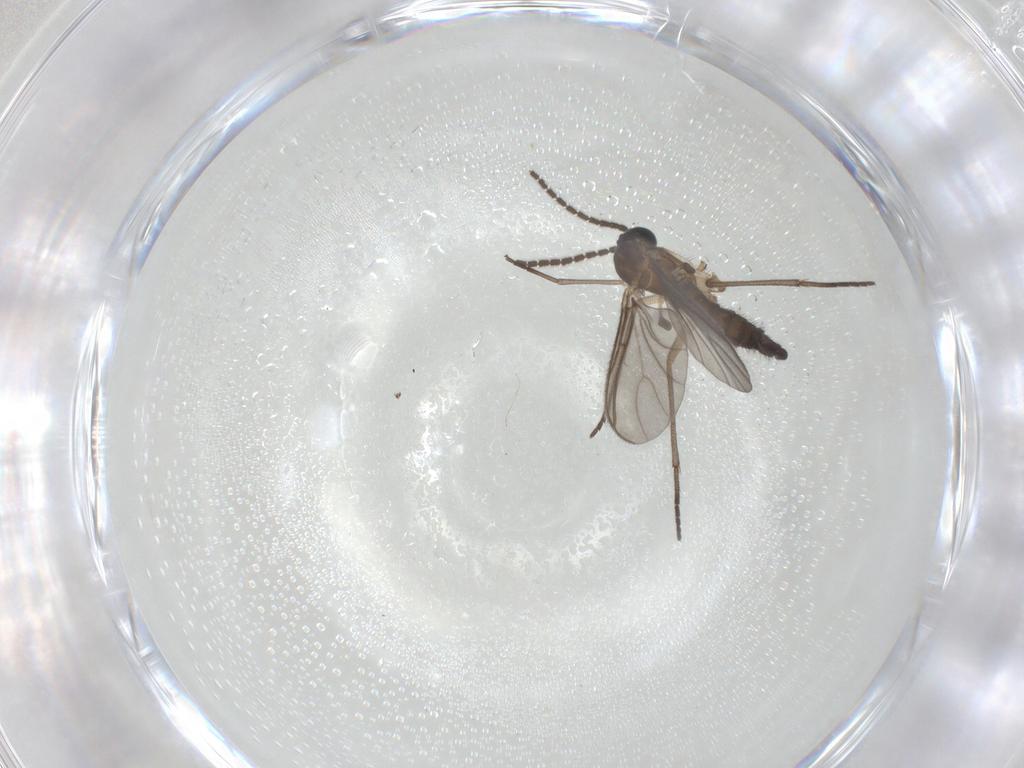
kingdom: Animalia
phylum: Arthropoda
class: Insecta
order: Diptera
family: Sciaridae
